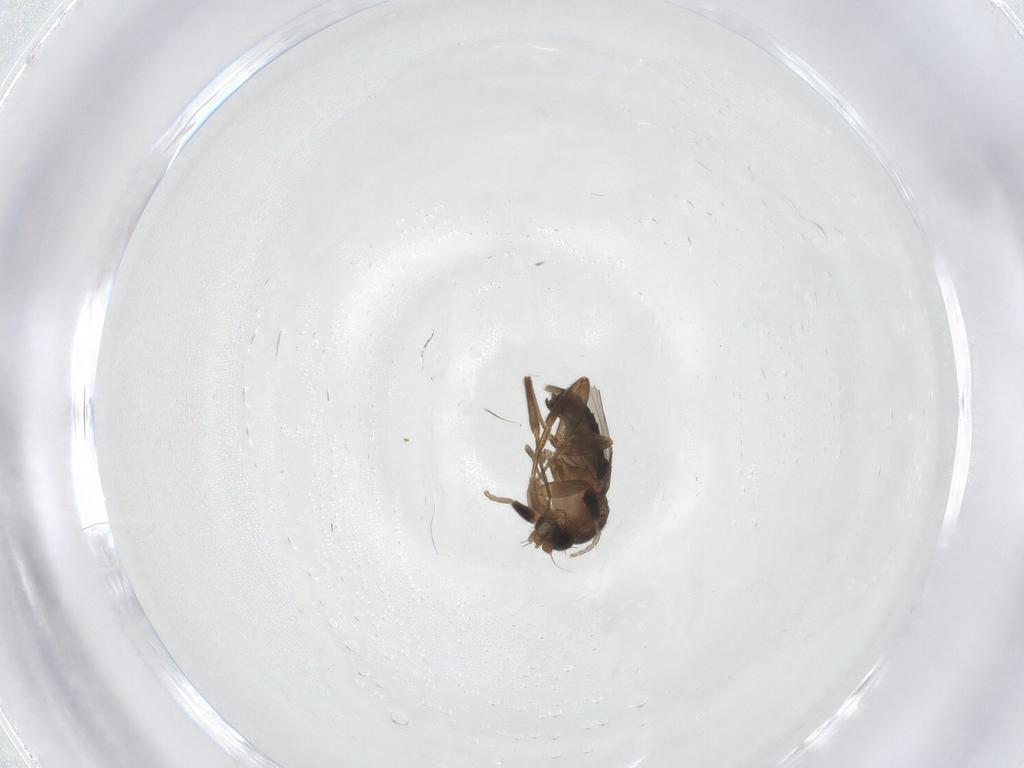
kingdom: Animalia
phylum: Arthropoda
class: Insecta
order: Diptera
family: Phoridae
